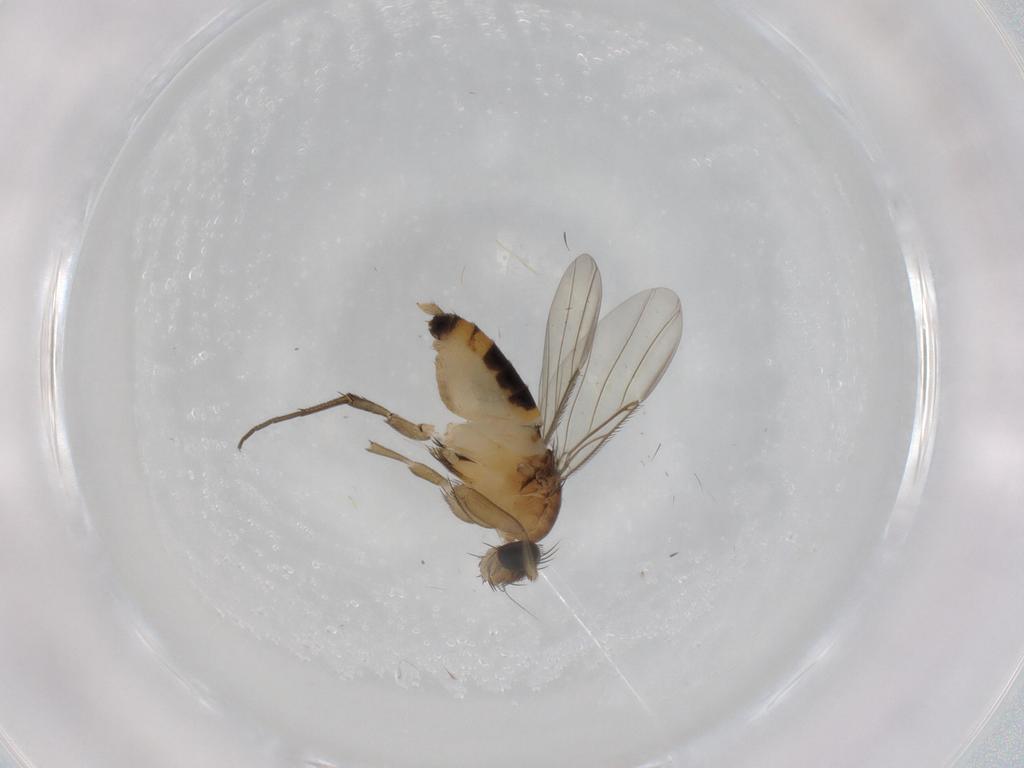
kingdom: Animalia
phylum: Arthropoda
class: Insecta
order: Diptera
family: Phoridae
